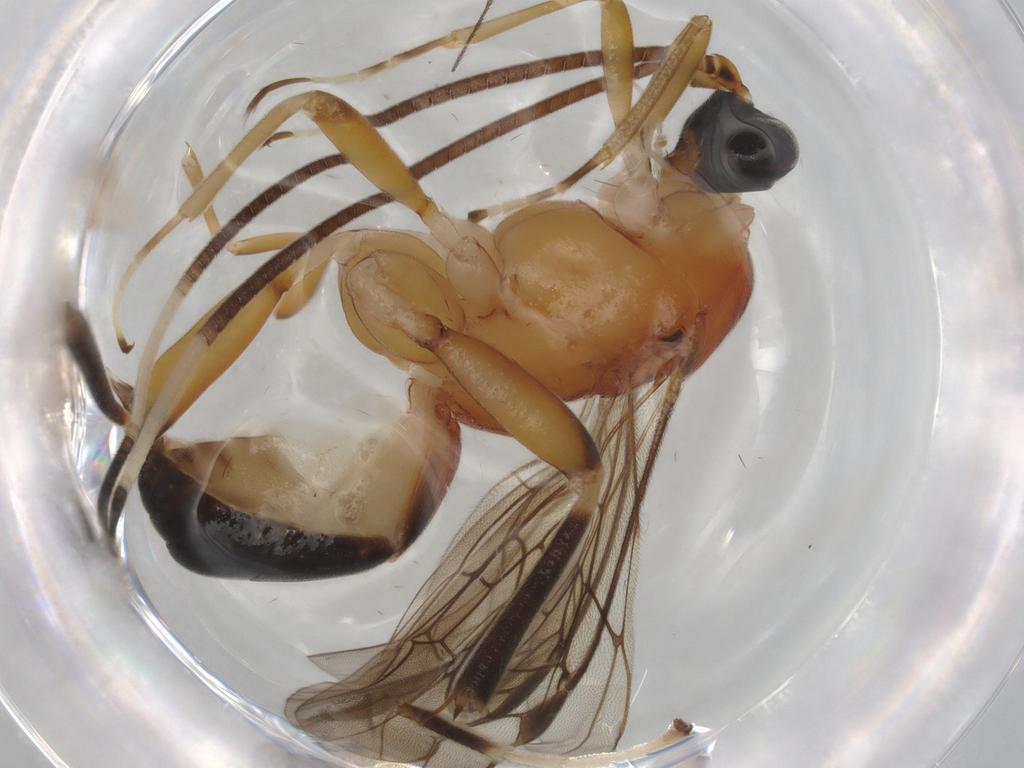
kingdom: Animalia
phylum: Arthropoda
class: Insecta
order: Hymenoptera
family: Braconidae
